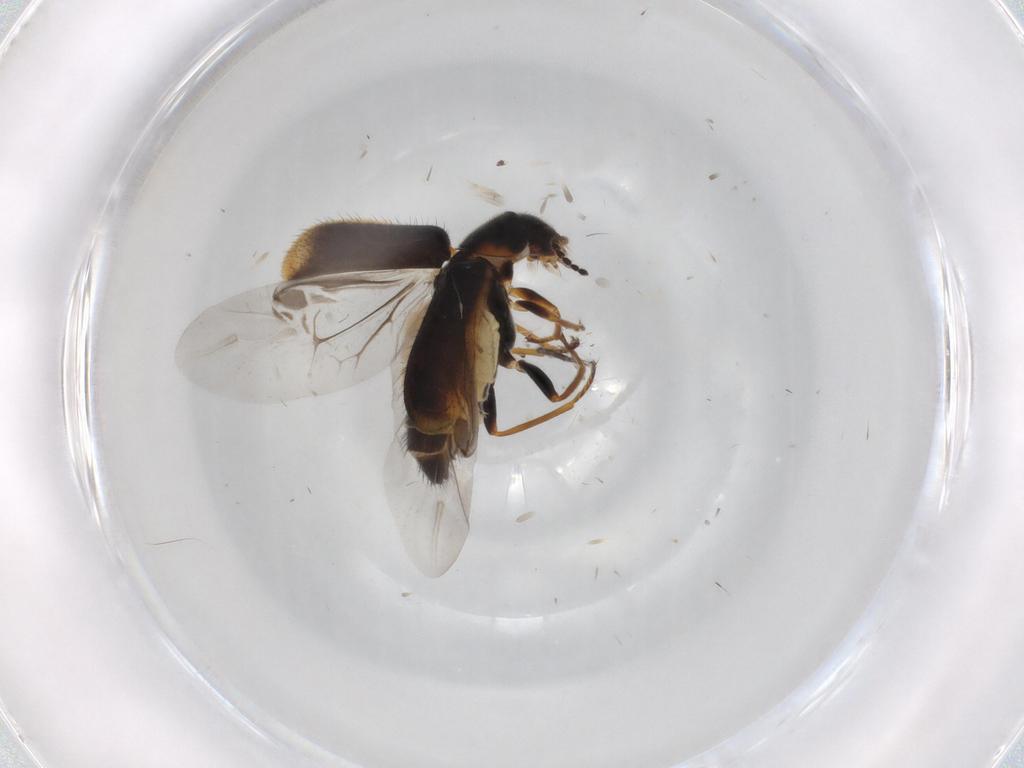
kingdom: Animalia
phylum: Arthropoda
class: Insecta
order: Coleoptera
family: Melyridae
